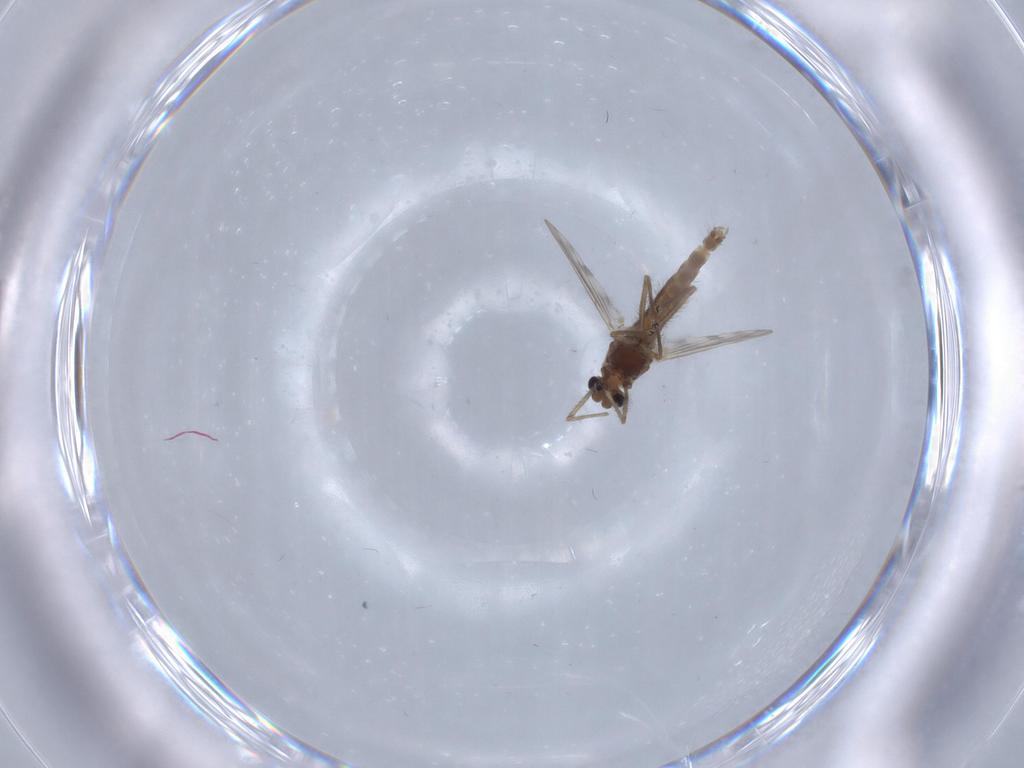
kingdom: Animalia
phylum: Arthropoda
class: Insecta
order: Diptera
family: Chironomidae
